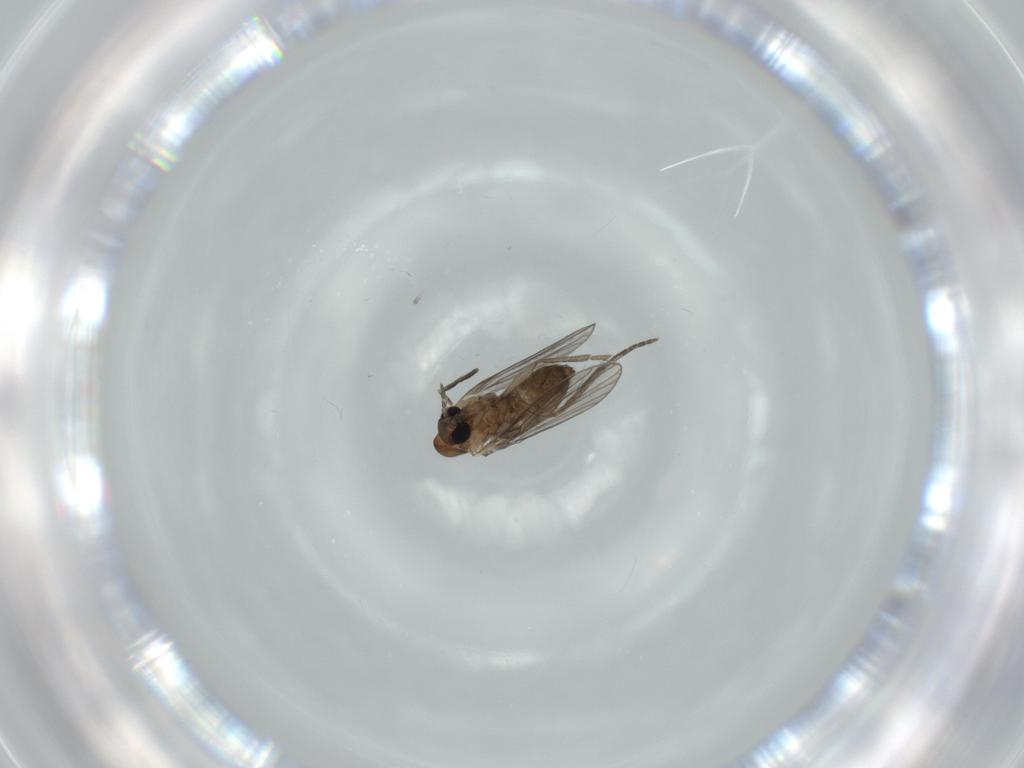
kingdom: Animalia
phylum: Arthropoda
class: Insecta
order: Diptera
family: Psychodidae
